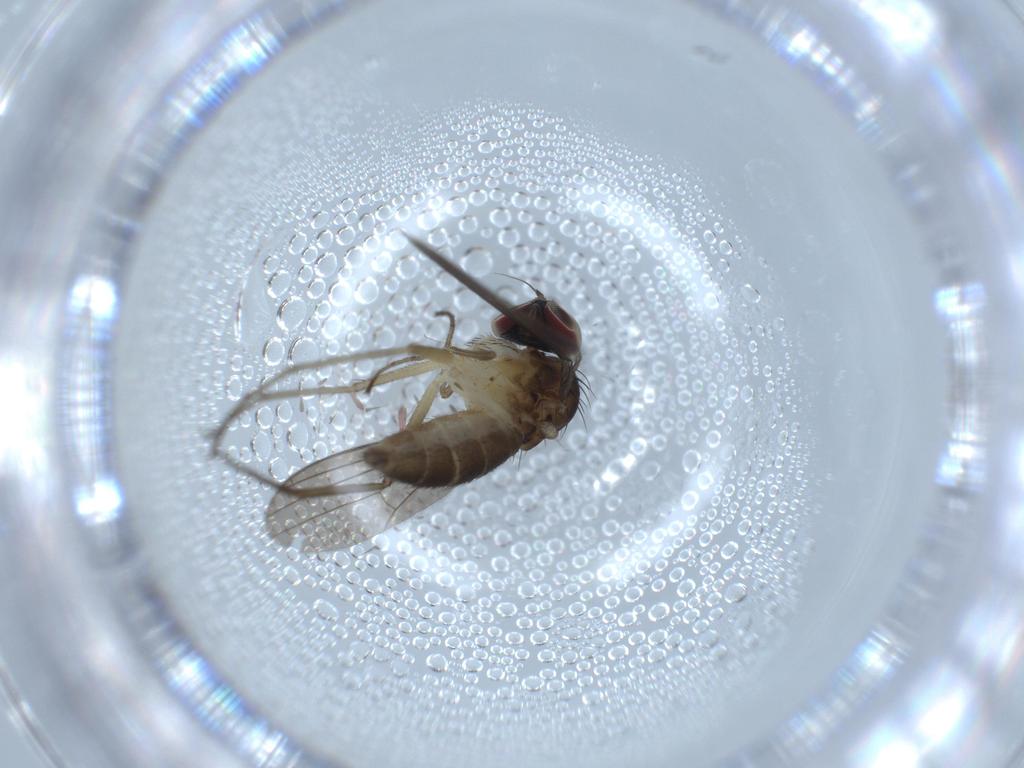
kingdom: Animalia
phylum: Arthropoda
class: Insecta
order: Diptera
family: Dolichopodidae
